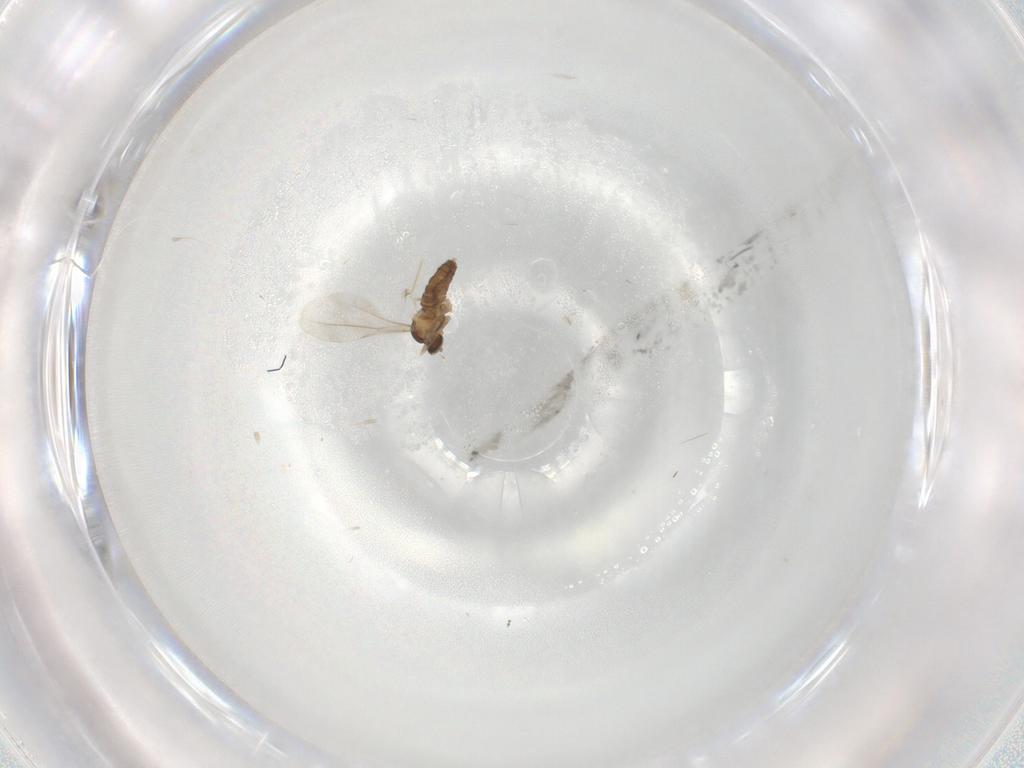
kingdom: Animalia
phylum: Arthropoda
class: Insecta
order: Diptera
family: Cecidomyiidae
